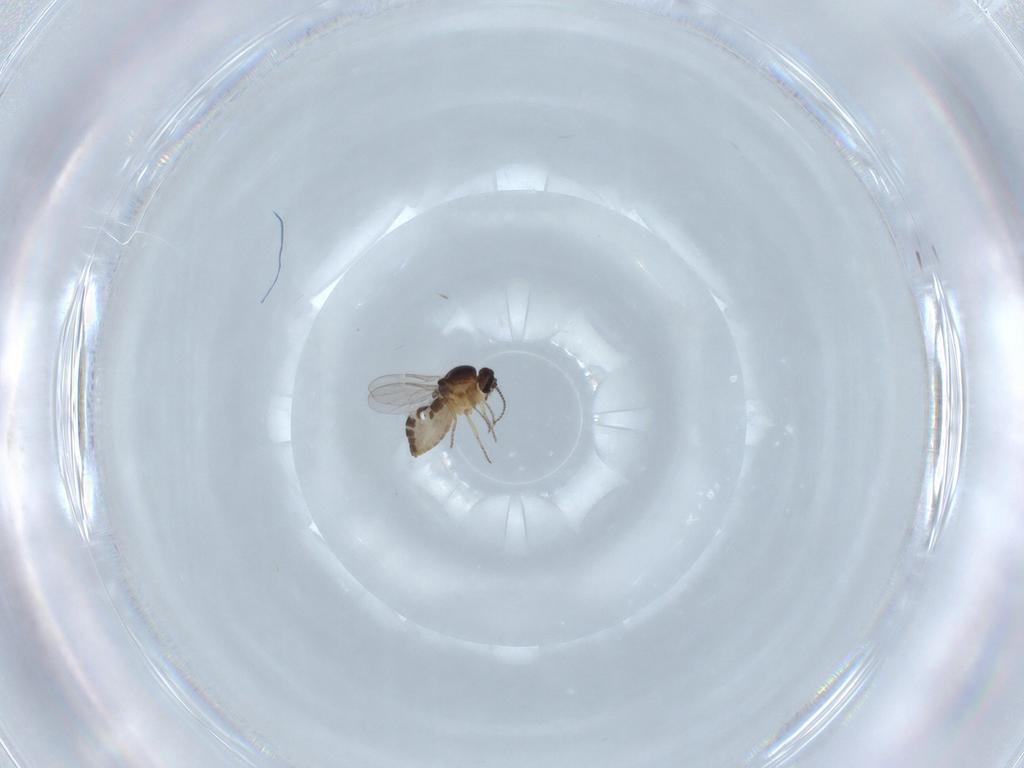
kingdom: Animalia
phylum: Arthropoda
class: Insecta
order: Diptera
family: Ceratopogonidae
